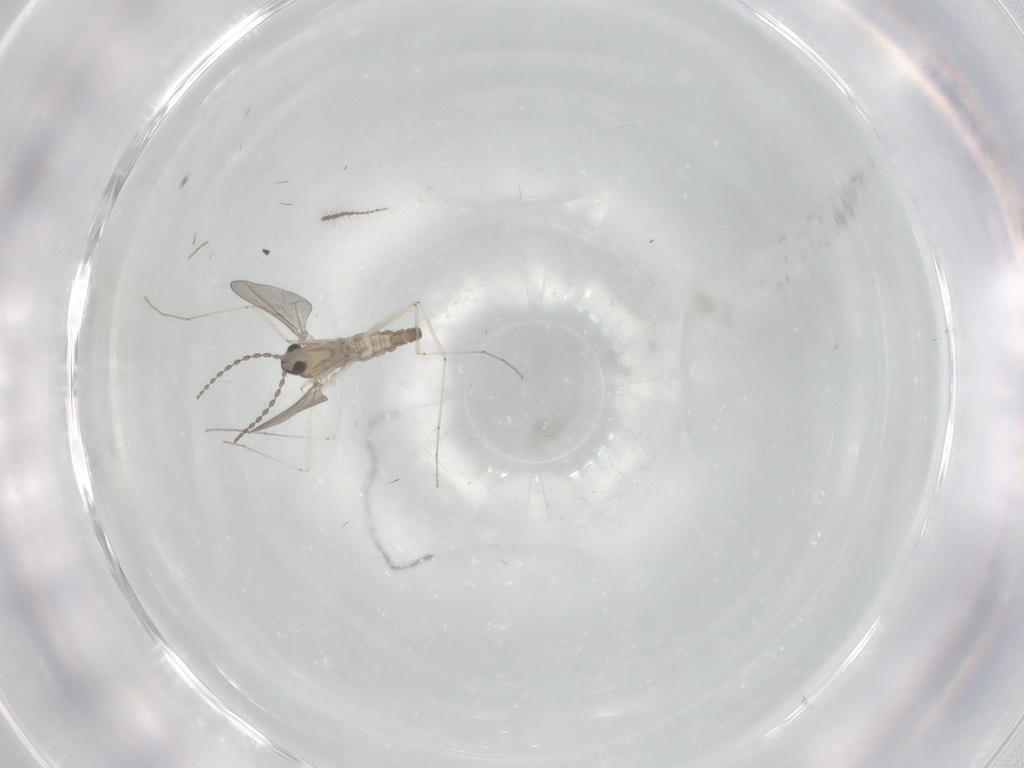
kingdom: Animalia
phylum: Arthropoda
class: Insecta
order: Diptera
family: Cecidomyiidae
